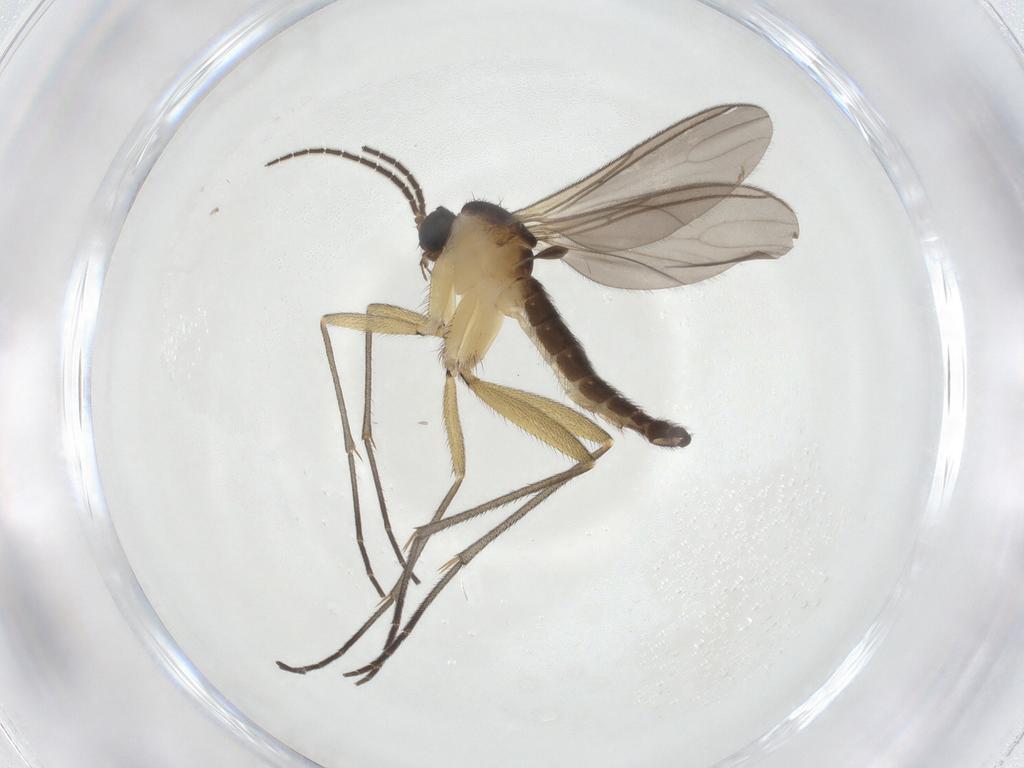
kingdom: Animalia
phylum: Arthropoda
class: Insecta
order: Diptera
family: Sciaridae
